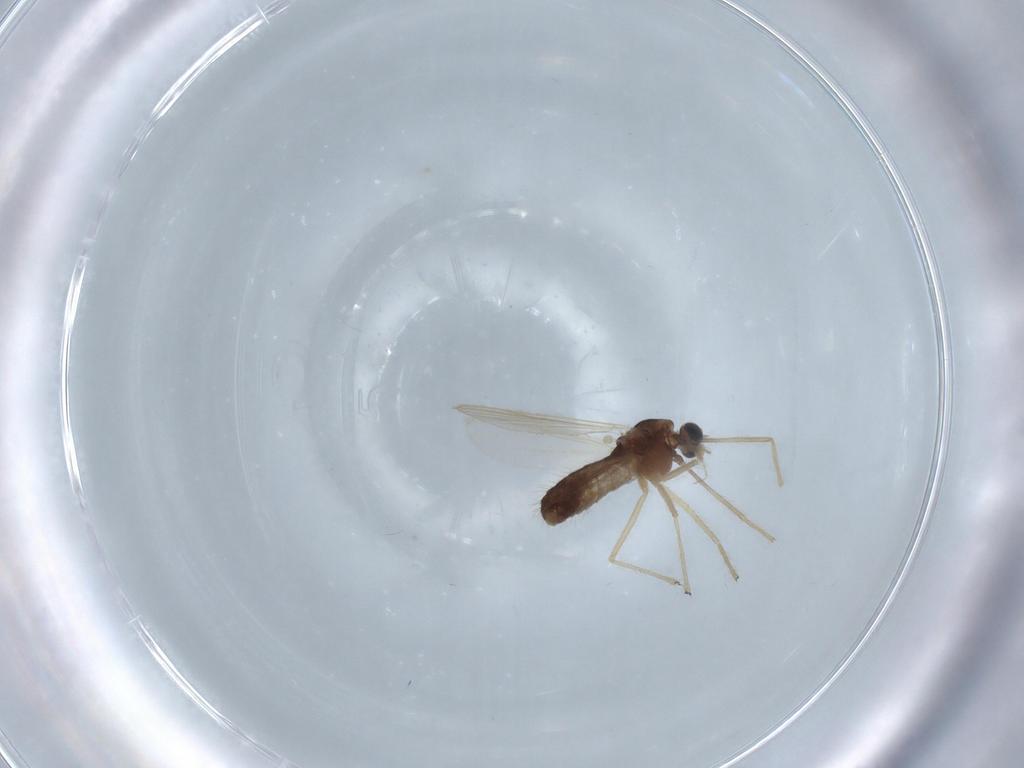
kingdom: Animalia
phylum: Arthropoda
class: Insecta
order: Diptera
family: Chironomidae
